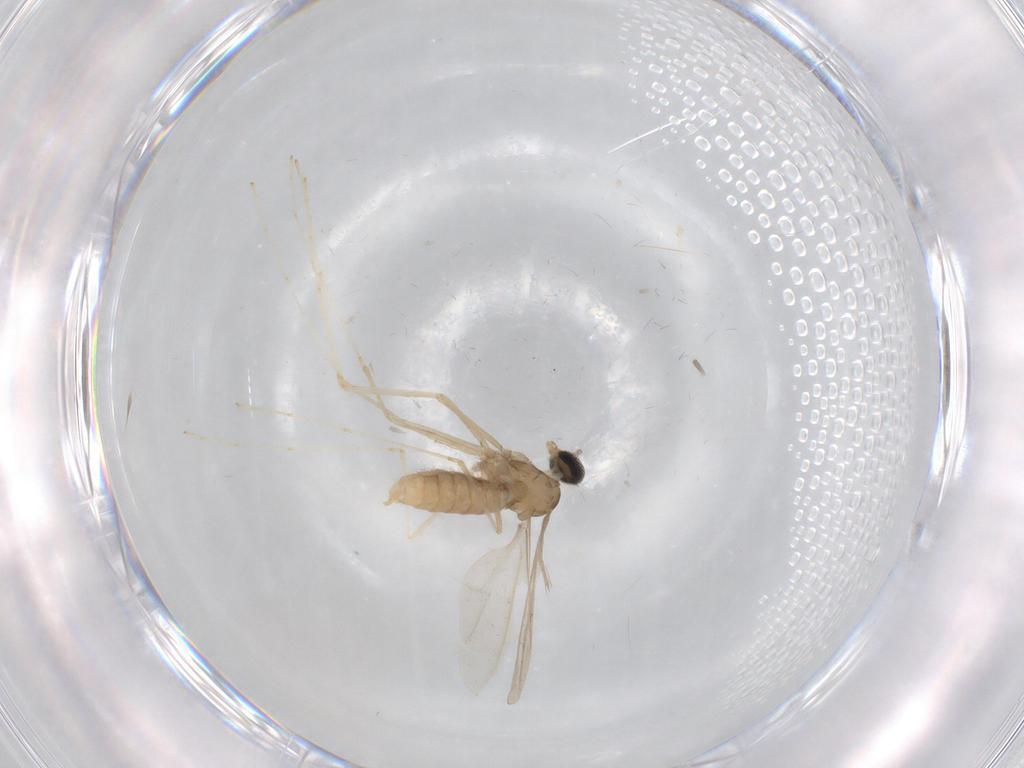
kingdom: Animalia
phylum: Arthropoda
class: Insecta
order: Diptera
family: Cecidomyiidae
